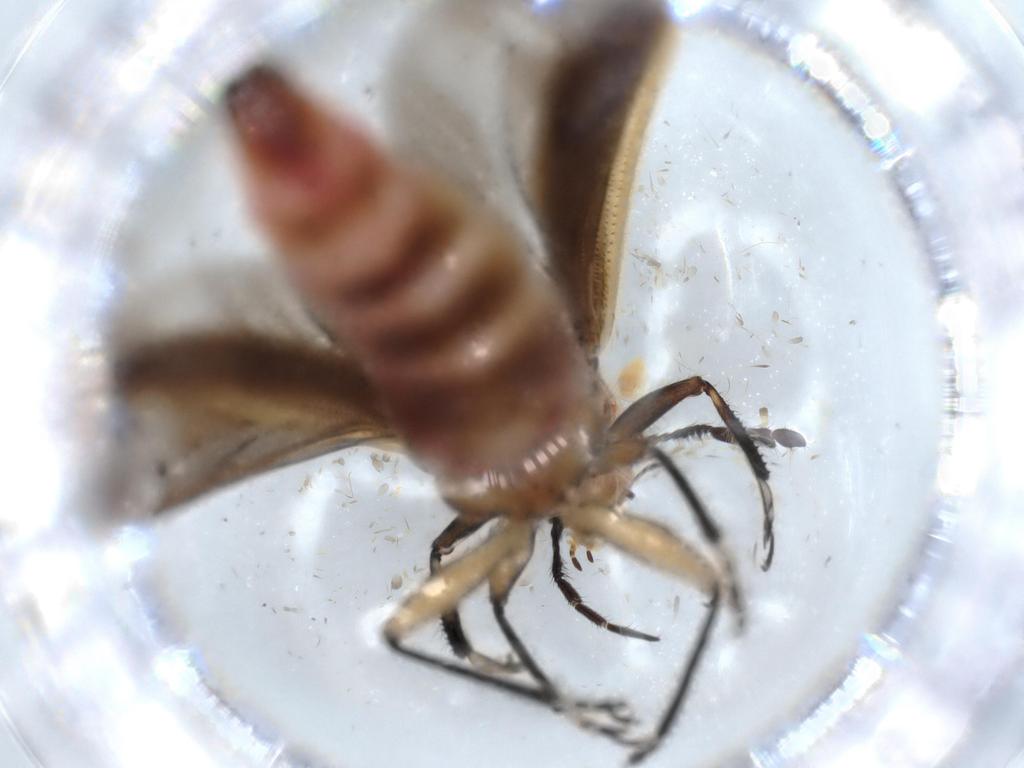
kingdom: Animalia
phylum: Arthropoda
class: Insecta
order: Coleoptera
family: Cleridae
